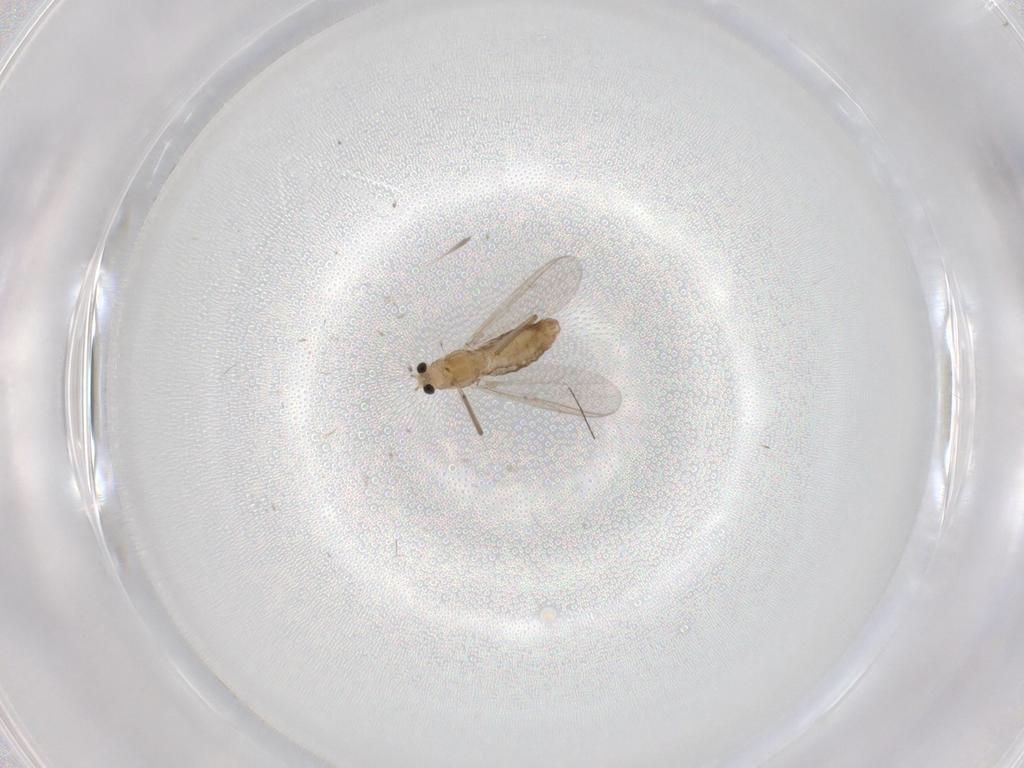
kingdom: Animalia
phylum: Arthropoda
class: Insecta
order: Diptera
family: Chironomidae
